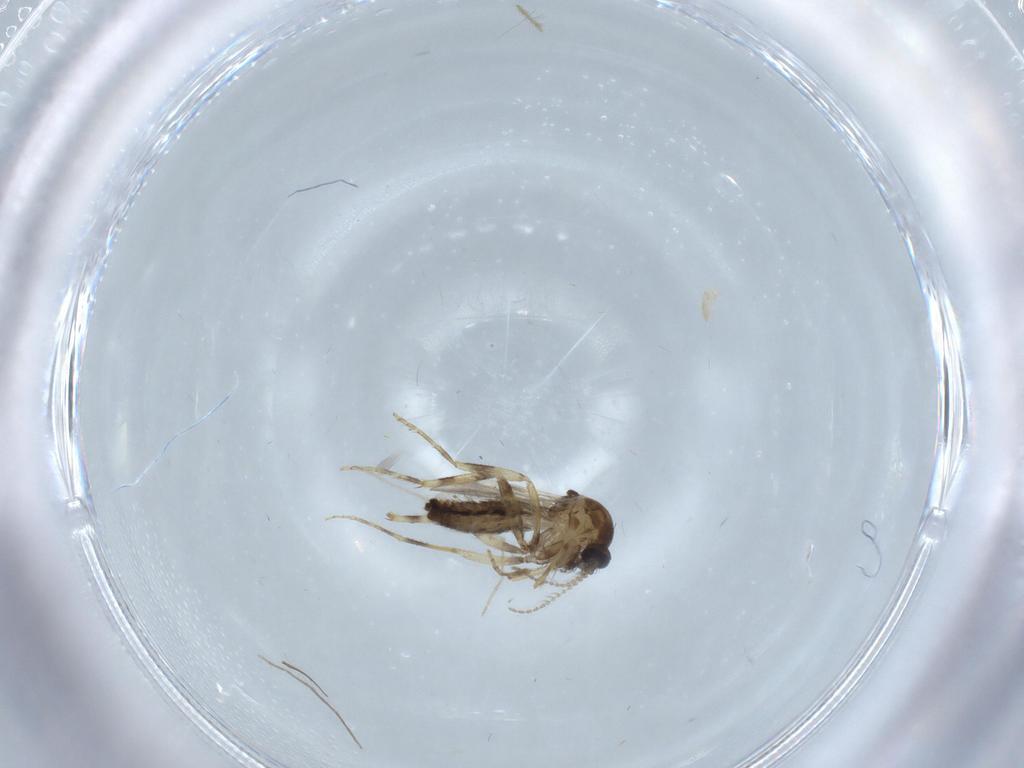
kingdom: Animalia
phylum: Arthropoda
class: Insecta
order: Diptera
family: Ceratopogonidae
